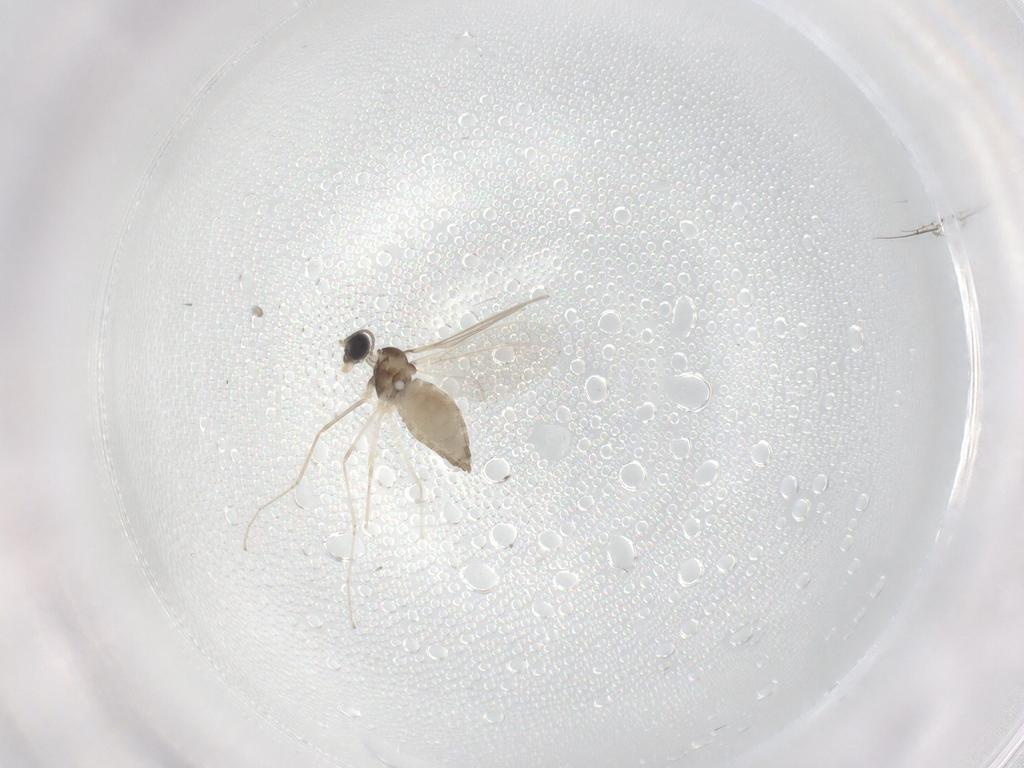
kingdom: Animalia
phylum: Arthropoda
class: Insecta
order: Diptera
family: Cecidomyiidae
